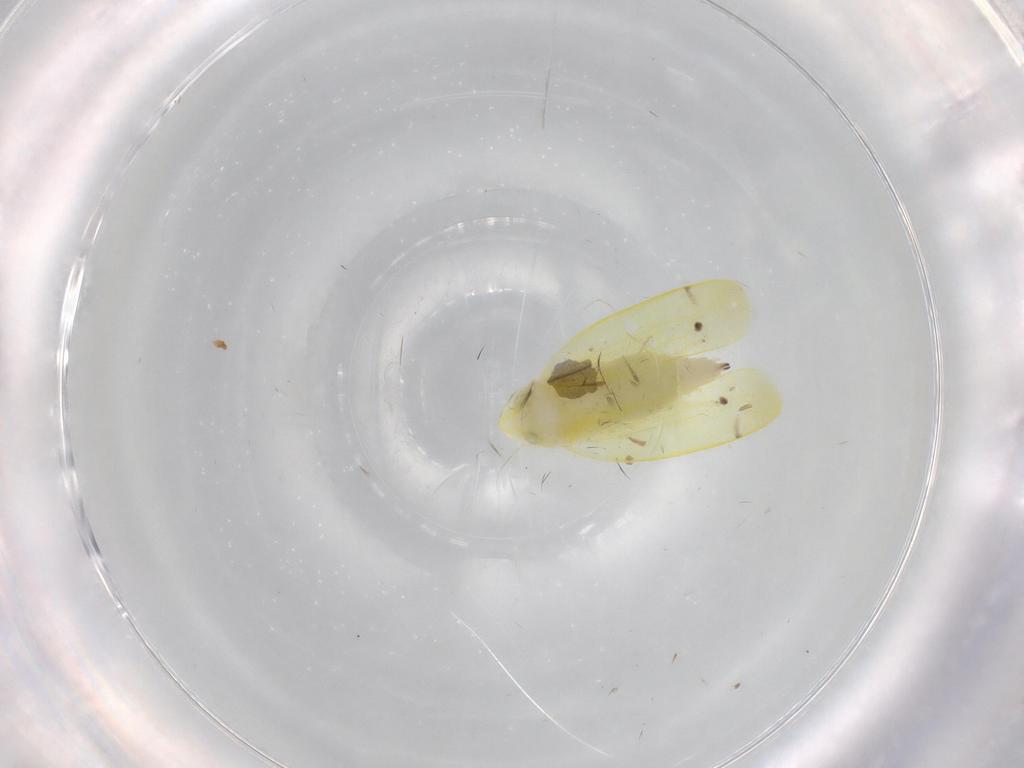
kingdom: Animalia
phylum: Arthropoda
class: Insecta
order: Hemiptera
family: Cicadellidae
